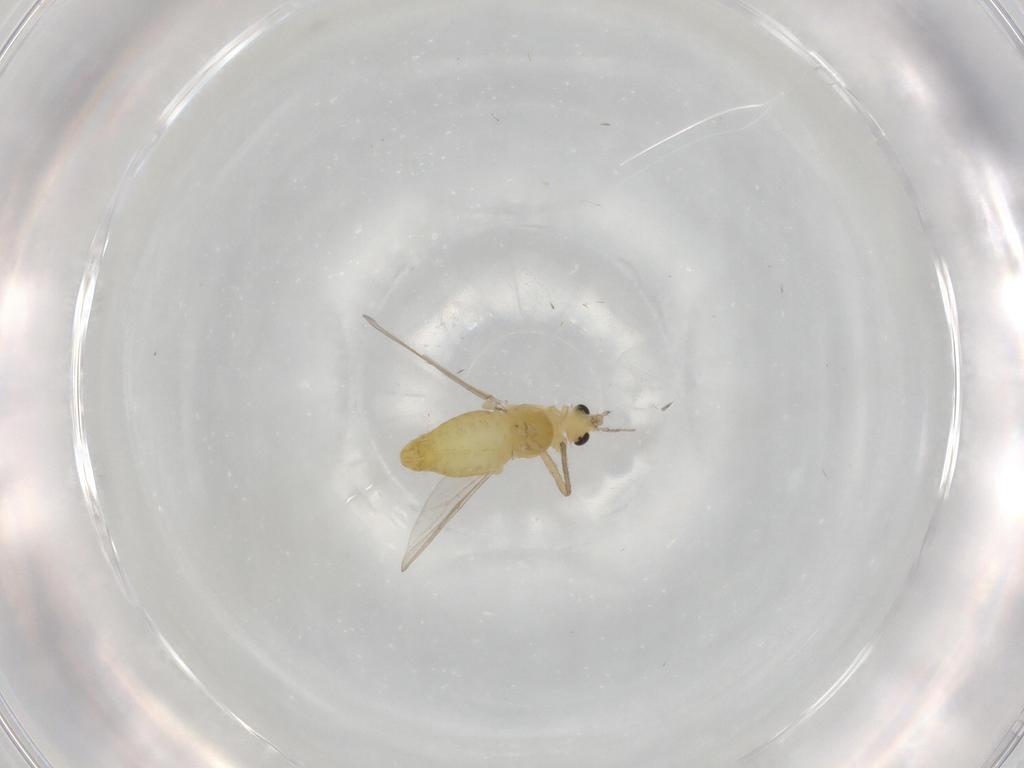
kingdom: Animalia
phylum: Arthropoda
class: Insecta
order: Diptera
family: Chironomidae
